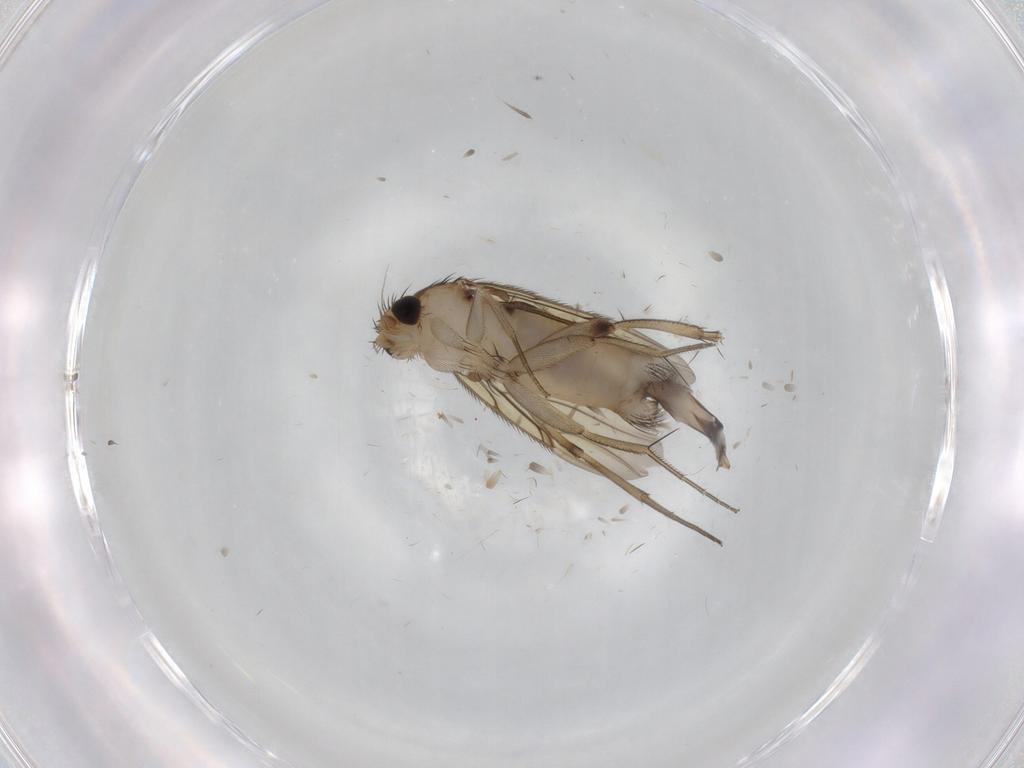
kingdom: Animalia
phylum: Arthropoda
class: Insecta
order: Diptera
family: Phoridae
